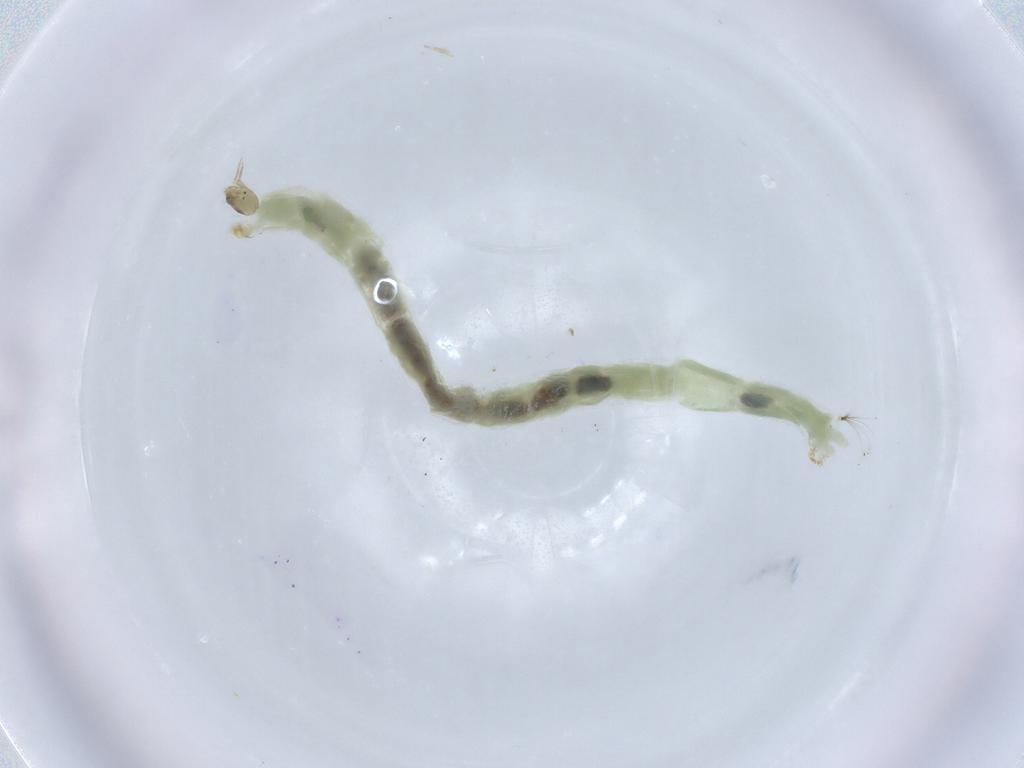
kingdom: Animalia
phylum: Arthropoda
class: Insecta
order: Diptera
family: Chironomidae
